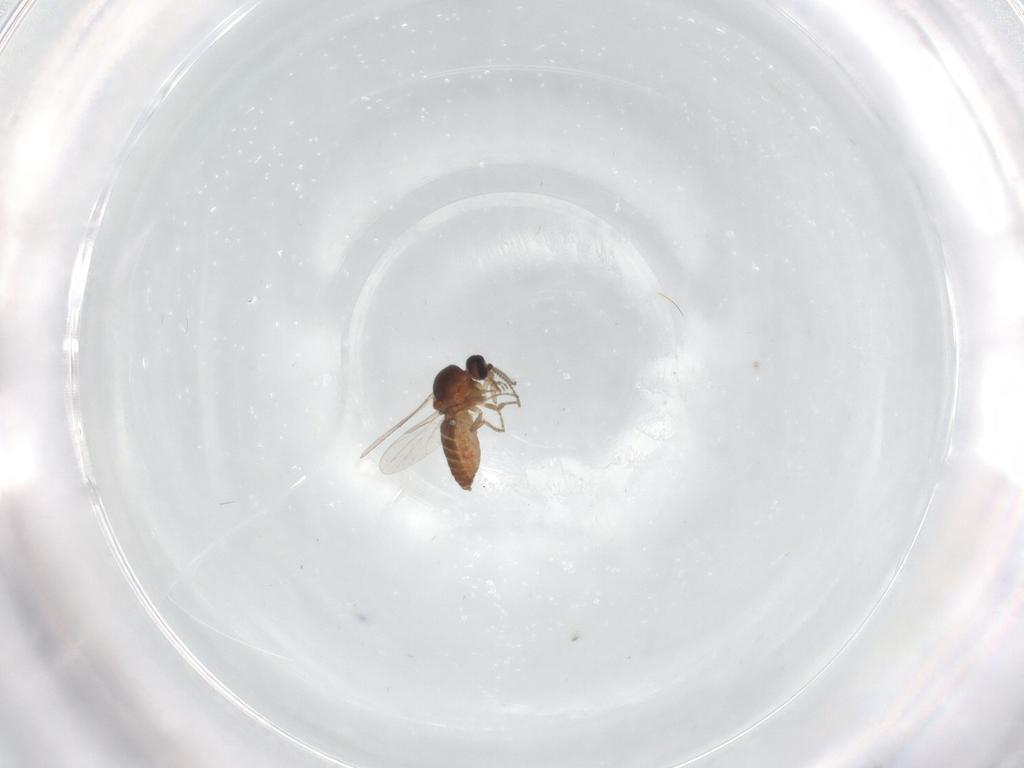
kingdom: Animalia
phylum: Arthropoda
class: Insecta
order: Diptera
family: Ceratopogonidae
